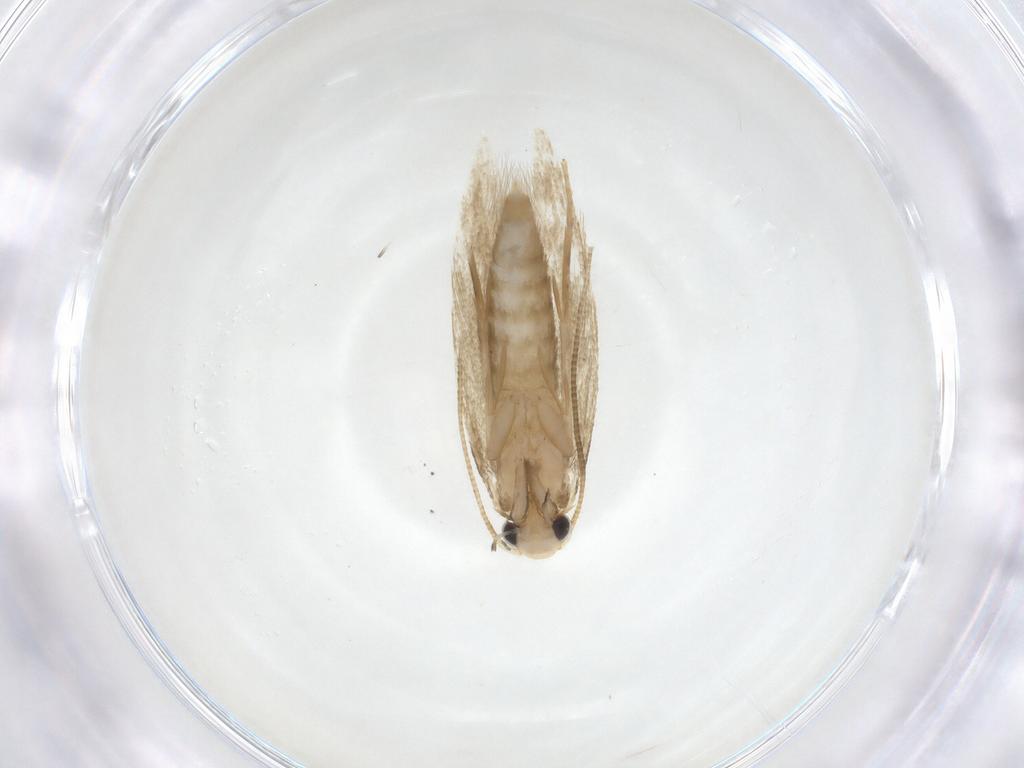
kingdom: Animalia
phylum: Arthropoda
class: Insecta
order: Lepidoptera
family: Tineidae
